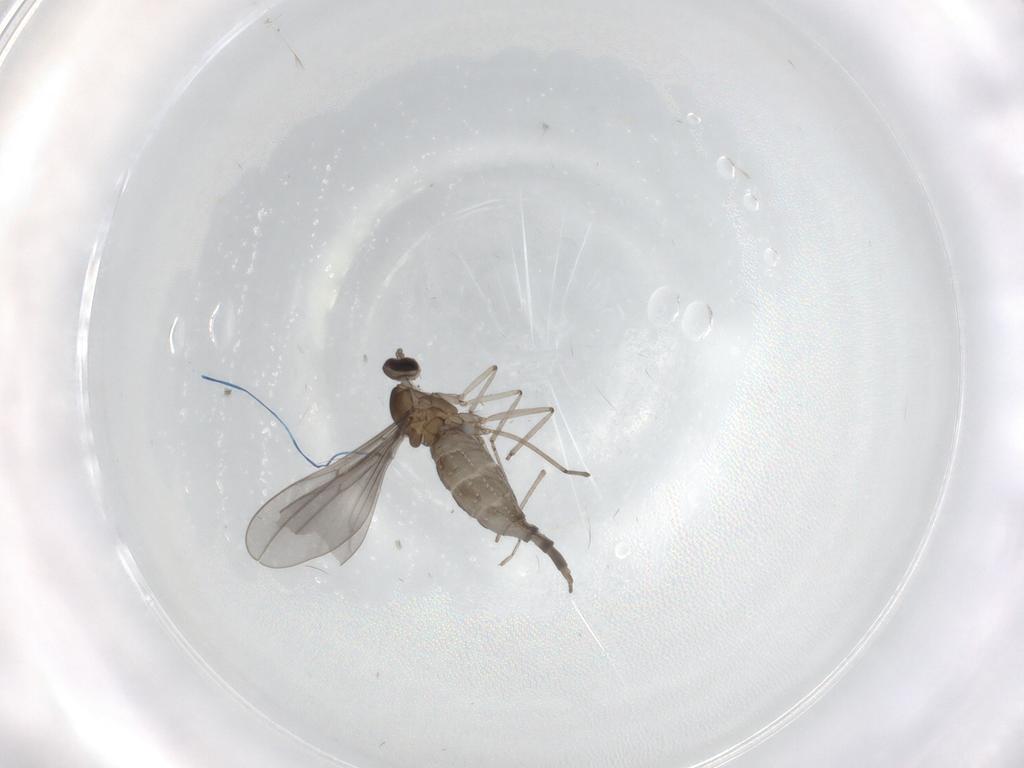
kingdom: Animalia
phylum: Arthropoda
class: Insecta
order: Diptera
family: Cecidomyiidae
